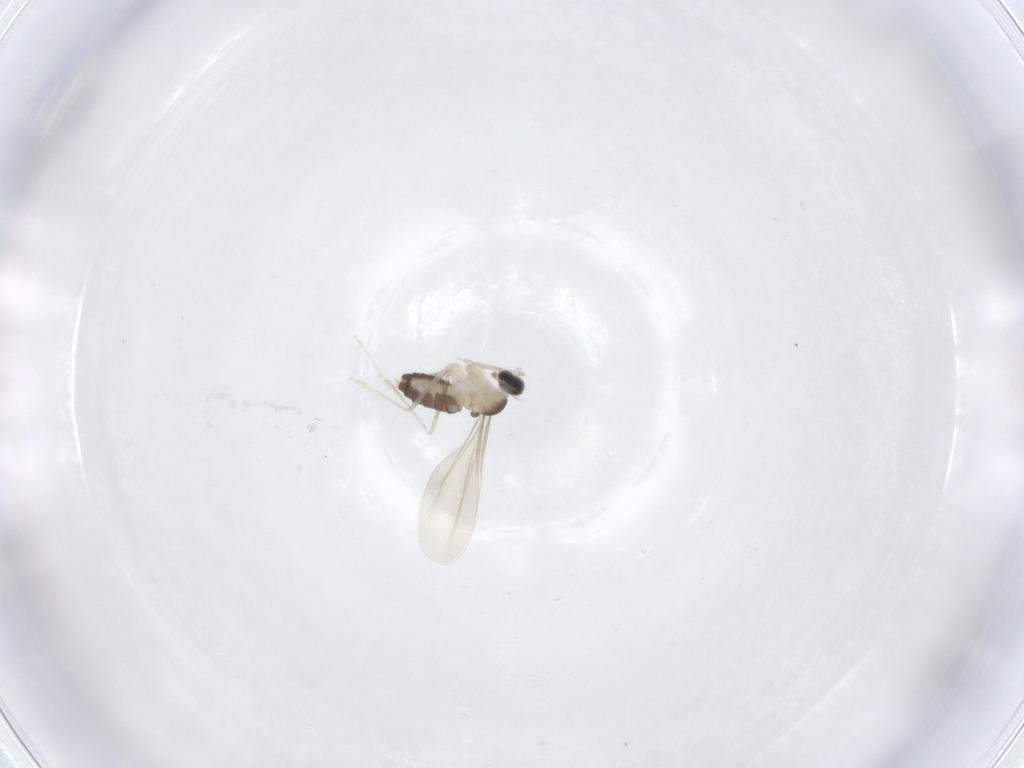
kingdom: Animalia
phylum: Arthropoda
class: Insecta
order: Diptera
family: Cecidomyiidae
